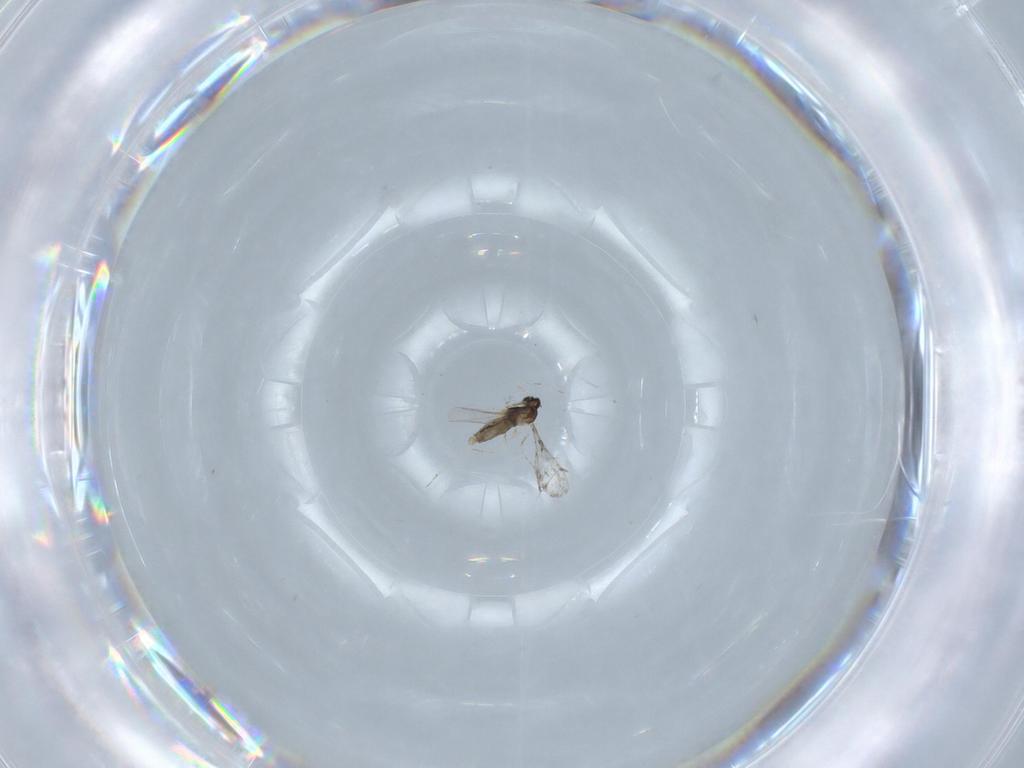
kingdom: Animalia
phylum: Arthropoda
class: Insecta
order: Diptera
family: Cecidomyiidae
